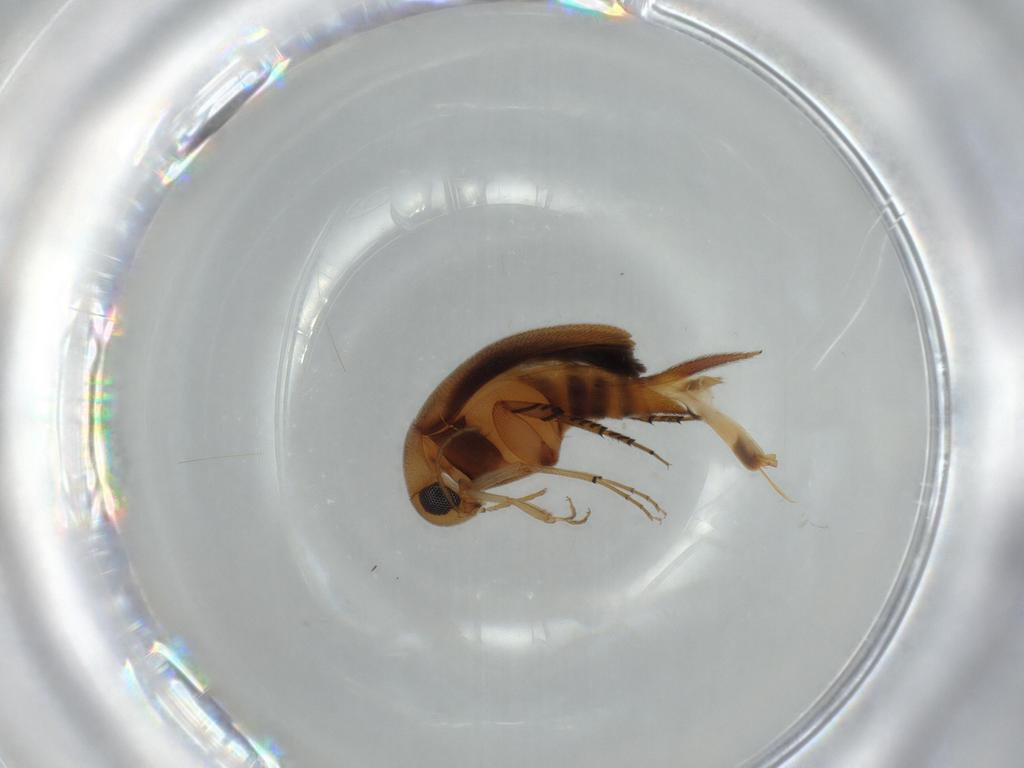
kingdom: Animalia
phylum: Arthropoda
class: Insecta
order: Coleoptera
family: Mordellidae
